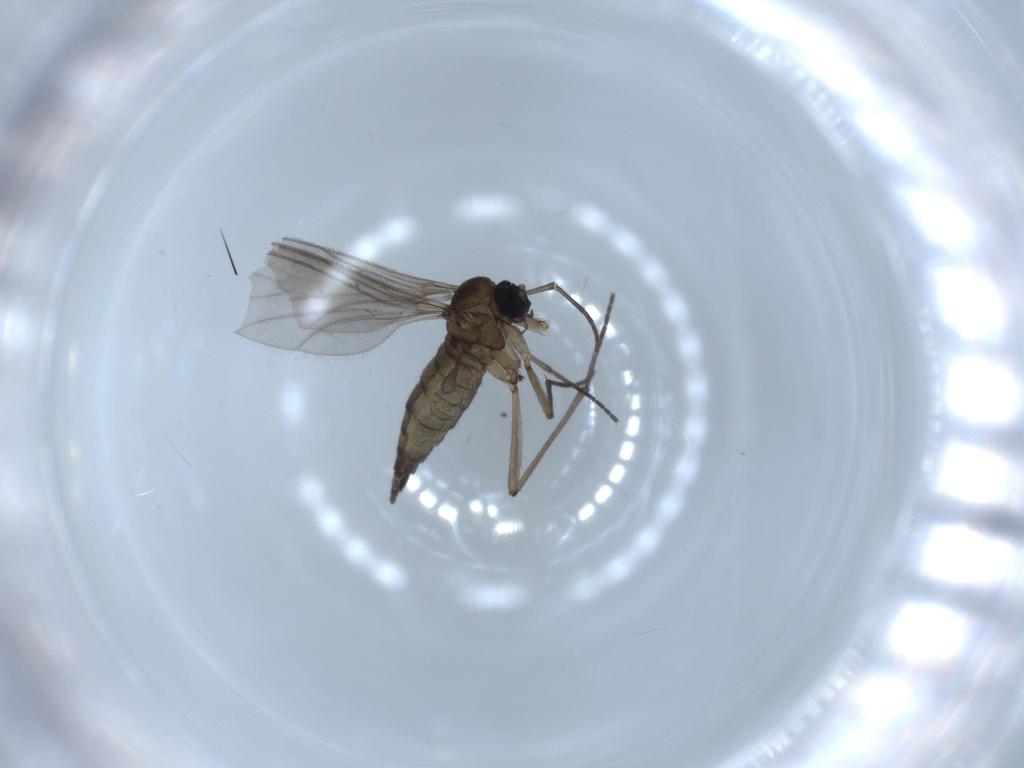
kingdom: Animalia
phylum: Arthropoda
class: Insecta
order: Diptera
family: Sciaridae
